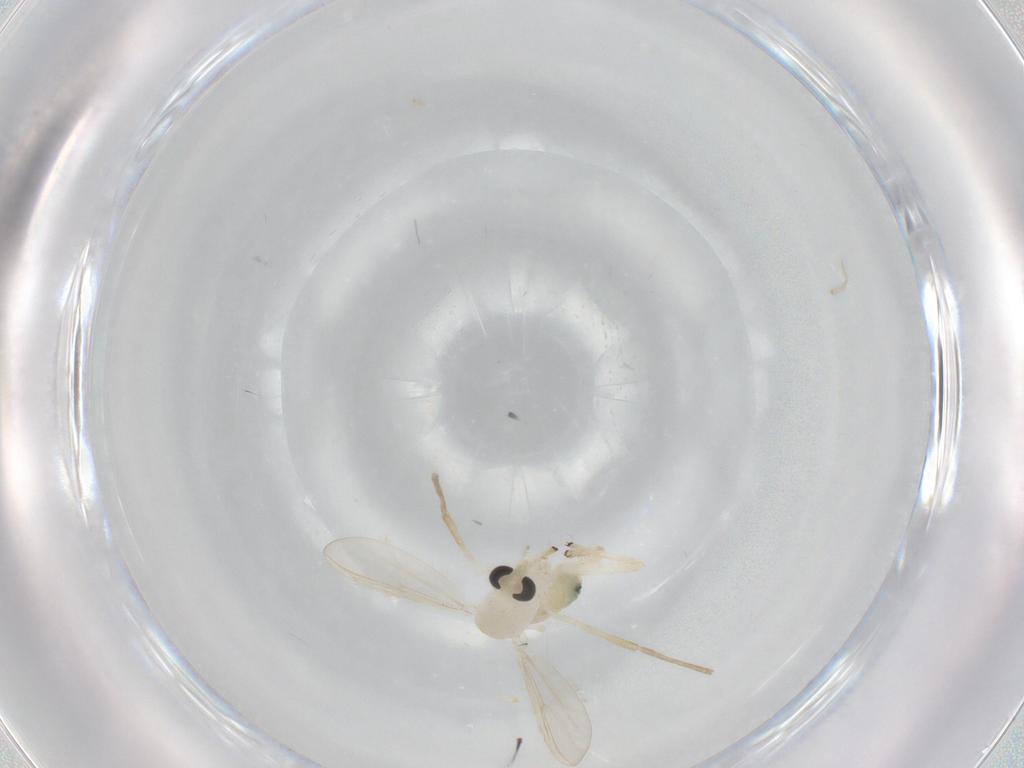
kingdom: Animalia
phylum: Arthropoda
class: Insecta
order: Diptera
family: Chironomidae
